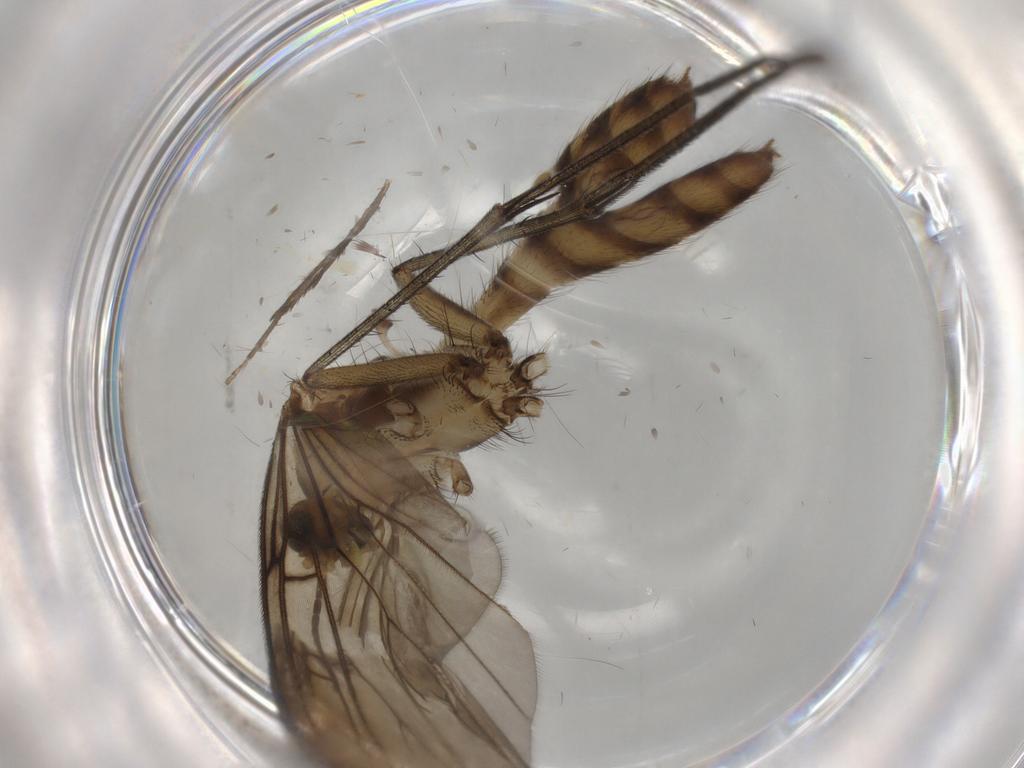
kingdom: Animalia
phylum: Arthropoda
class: Insecta
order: Diptera
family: Mycetophilidae
